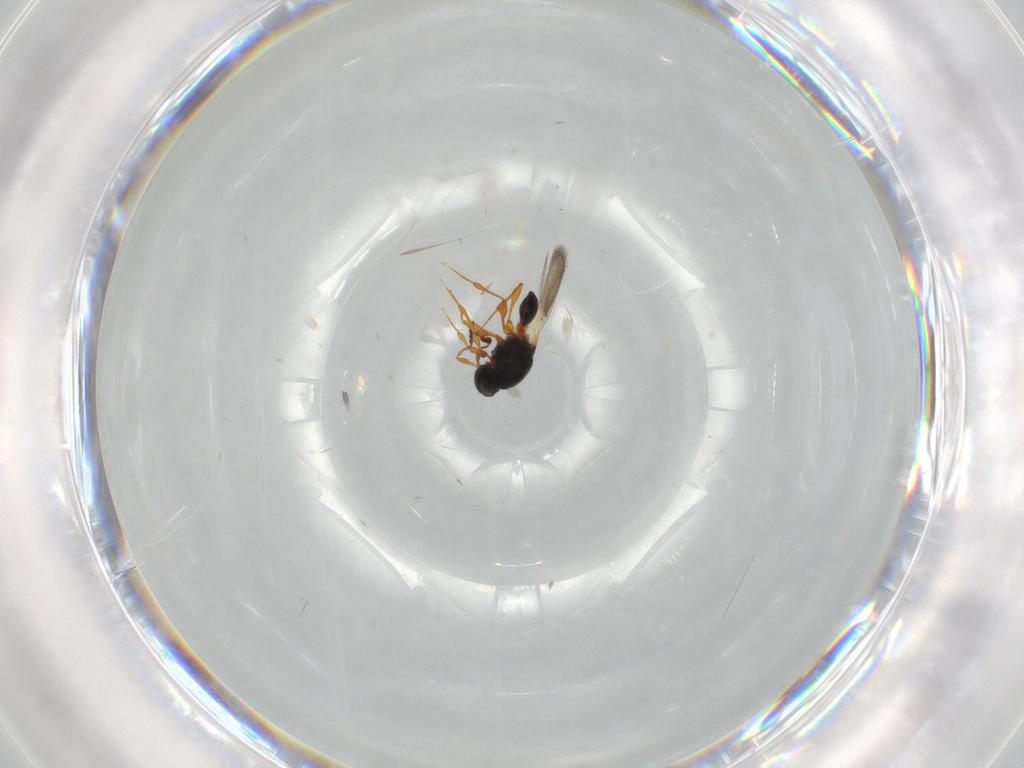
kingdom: Animalia
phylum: Arthropoda
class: Insecta
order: Hymenoptera
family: Platygastridae
